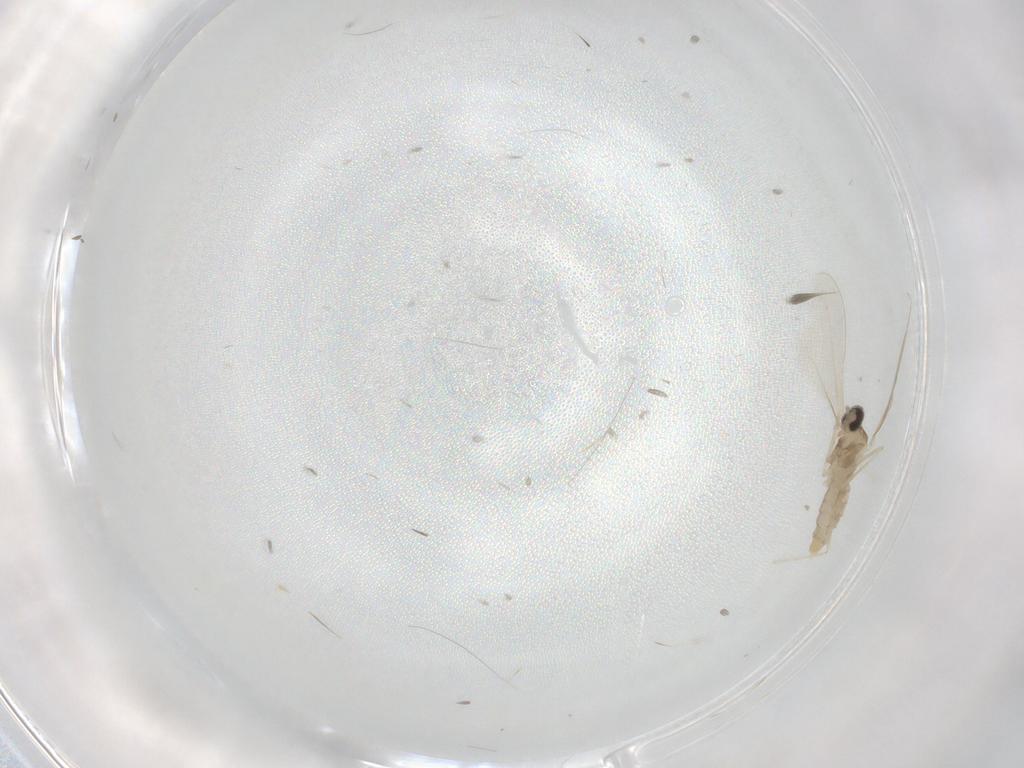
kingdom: Animalia
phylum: Arthropoda
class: Insecta
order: Diptera
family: Cecidomyiidae
